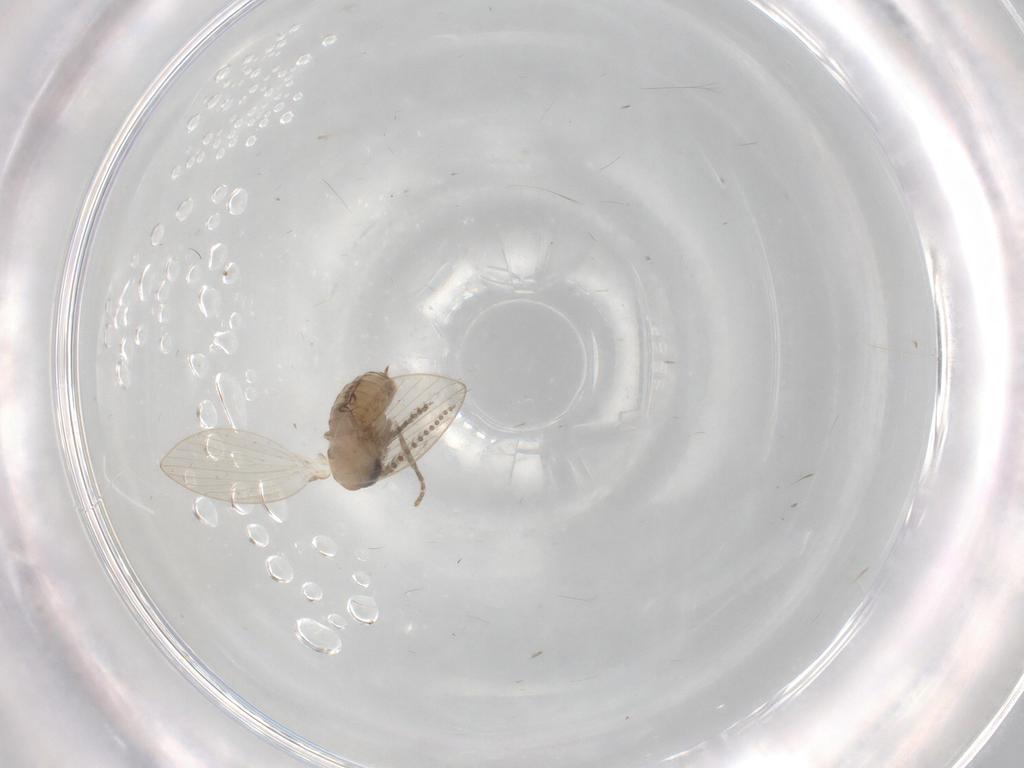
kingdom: Animalia
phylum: Arthropoda
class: Insecta
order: Diptera
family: Psychodidae
